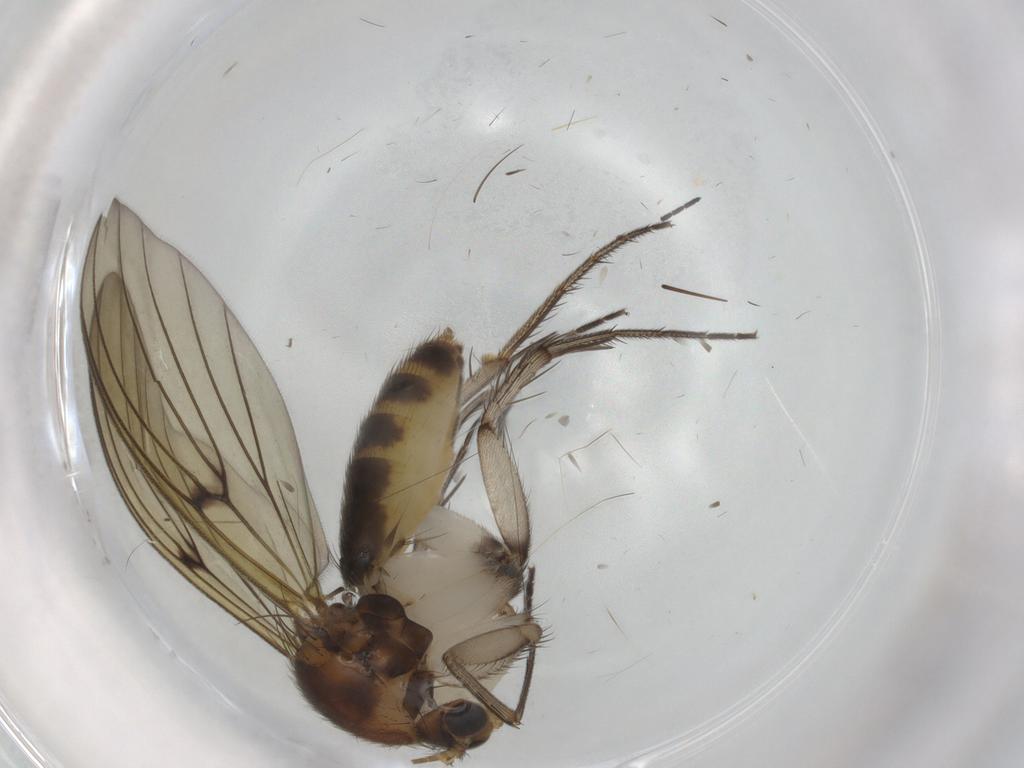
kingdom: Animalia
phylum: Arthropoda
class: Insecta
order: Diptera
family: Mycetophilidae
